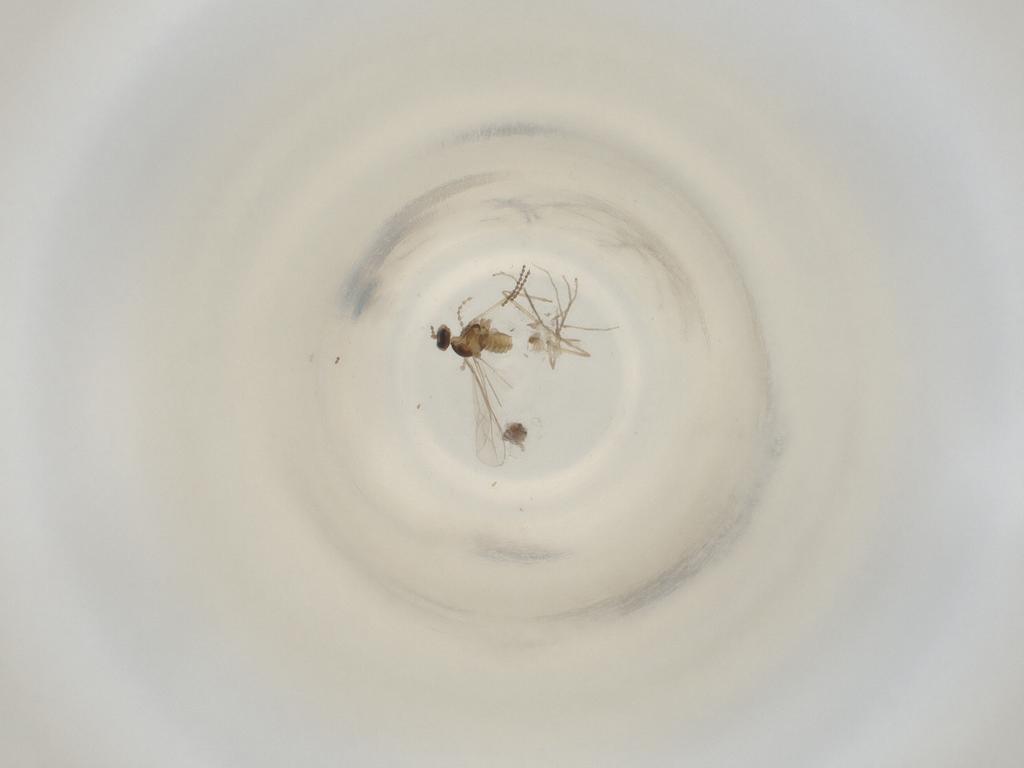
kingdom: Animalia
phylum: Arthropoda
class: Insecta
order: Diptera
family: Cecidomyiidae
